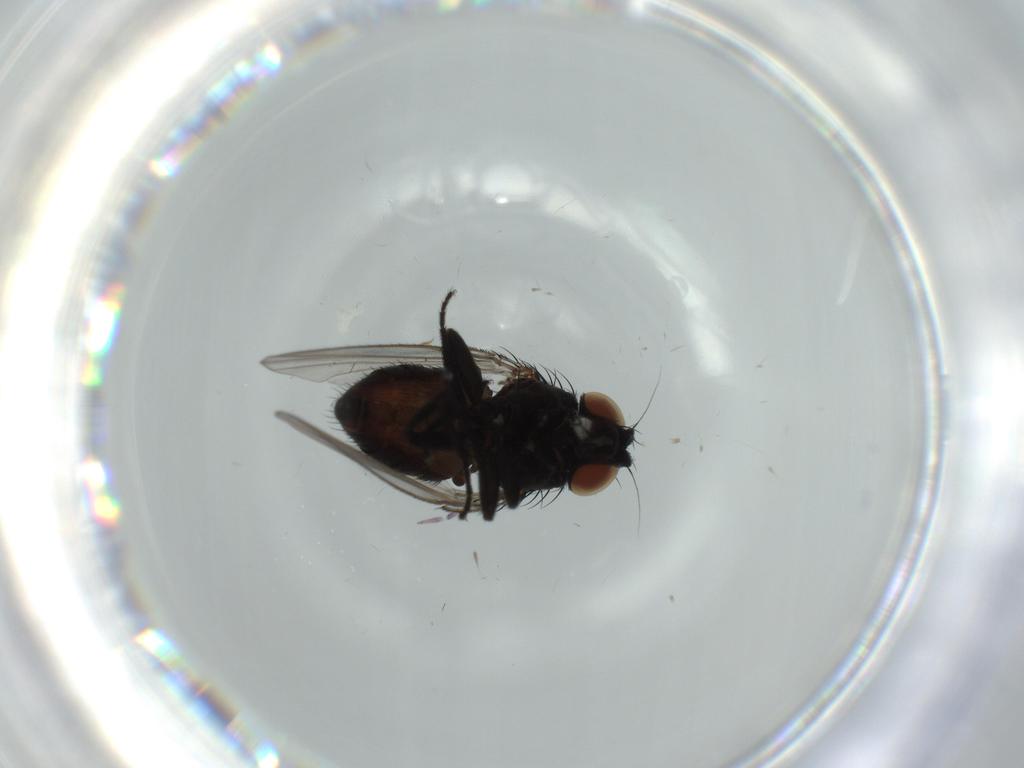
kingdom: Animalia
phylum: Arthropoda
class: Insecta
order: Diptera
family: Milichiidae
